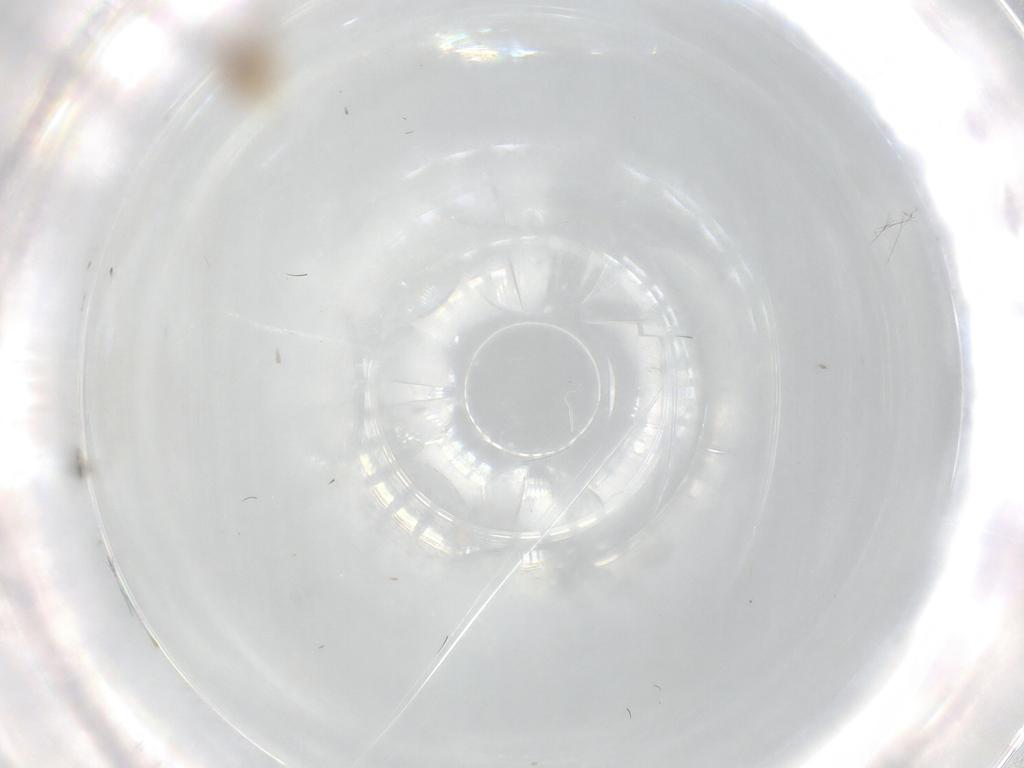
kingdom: Animalia
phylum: Arthropoda
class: Insecta
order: Hemiptera
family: Aleyrodidae
